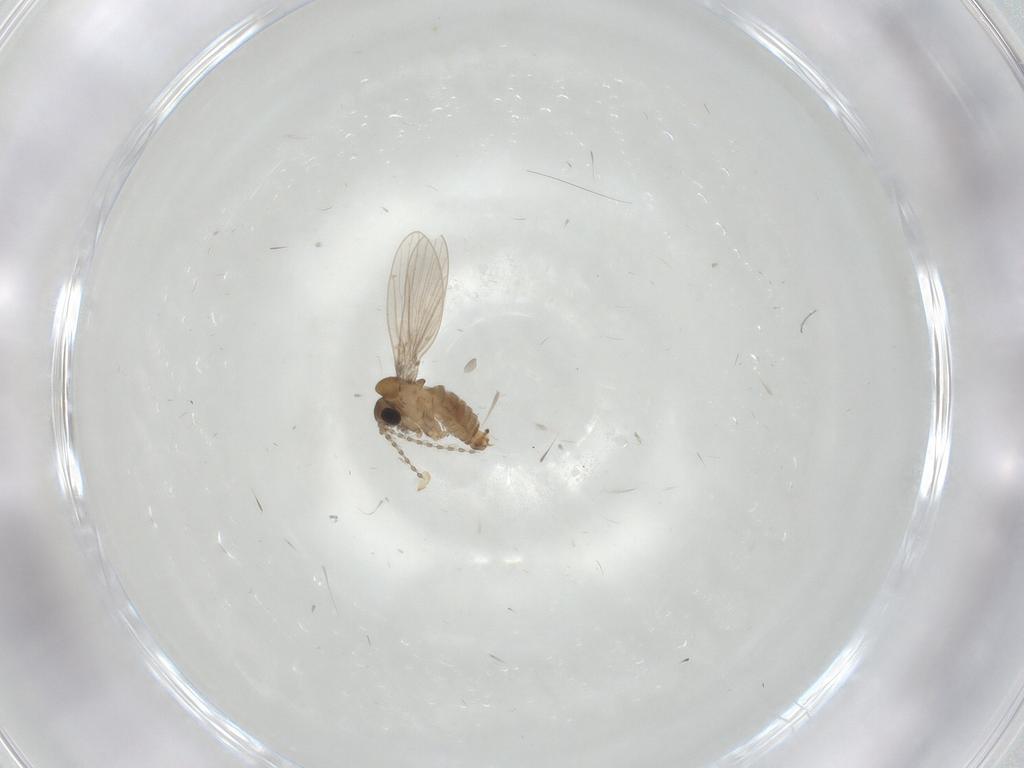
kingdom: Animalia
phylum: Arthropoda
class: Insecta
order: Diptera
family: Psychodidae
